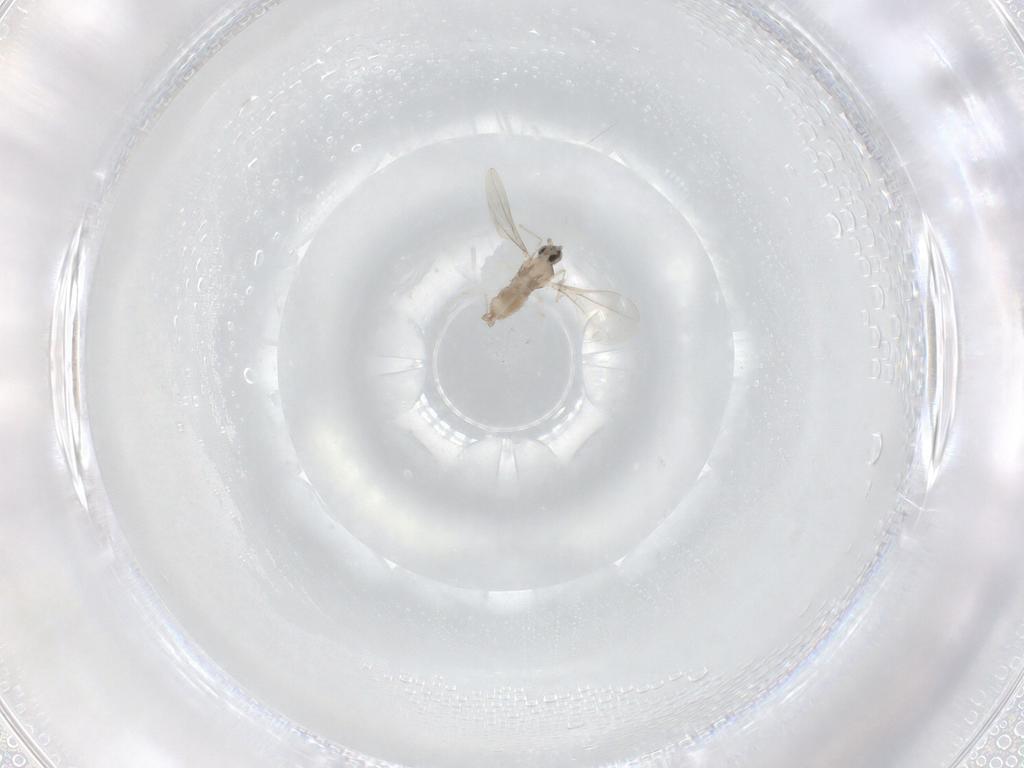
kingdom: Animalia
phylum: Arthropoda
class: Insecta
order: Diptera
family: Cecidomyiidae
